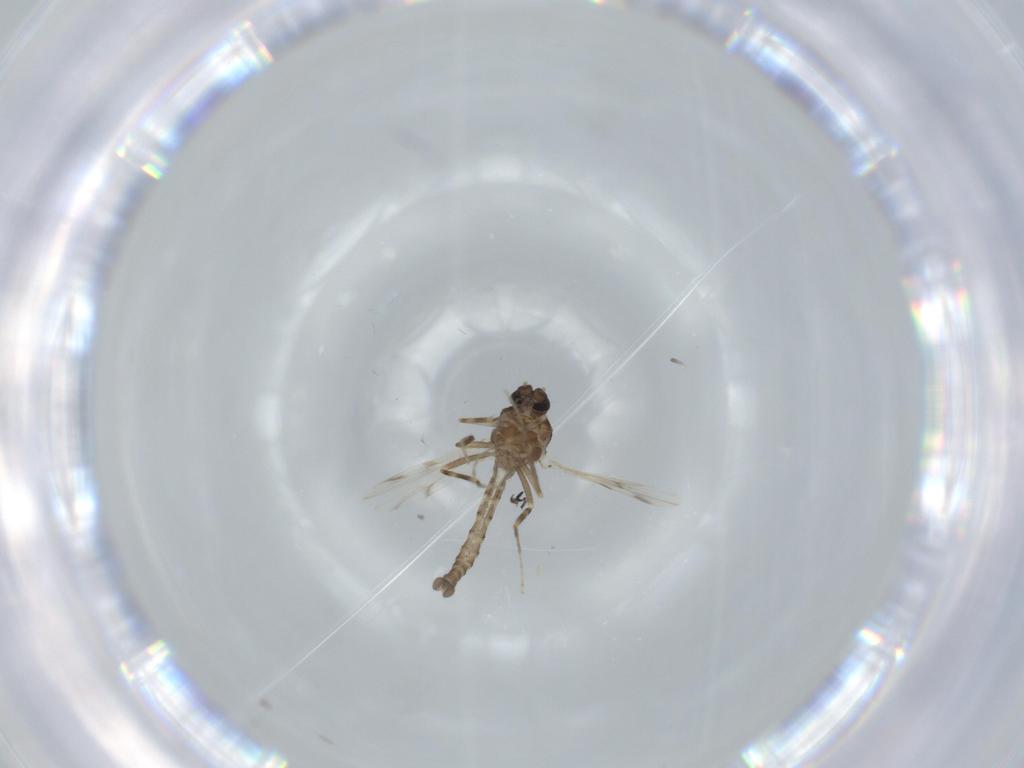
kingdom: Animalia
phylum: Arthropoda
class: Insecta
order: Diptera
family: Ceratopogonidae
